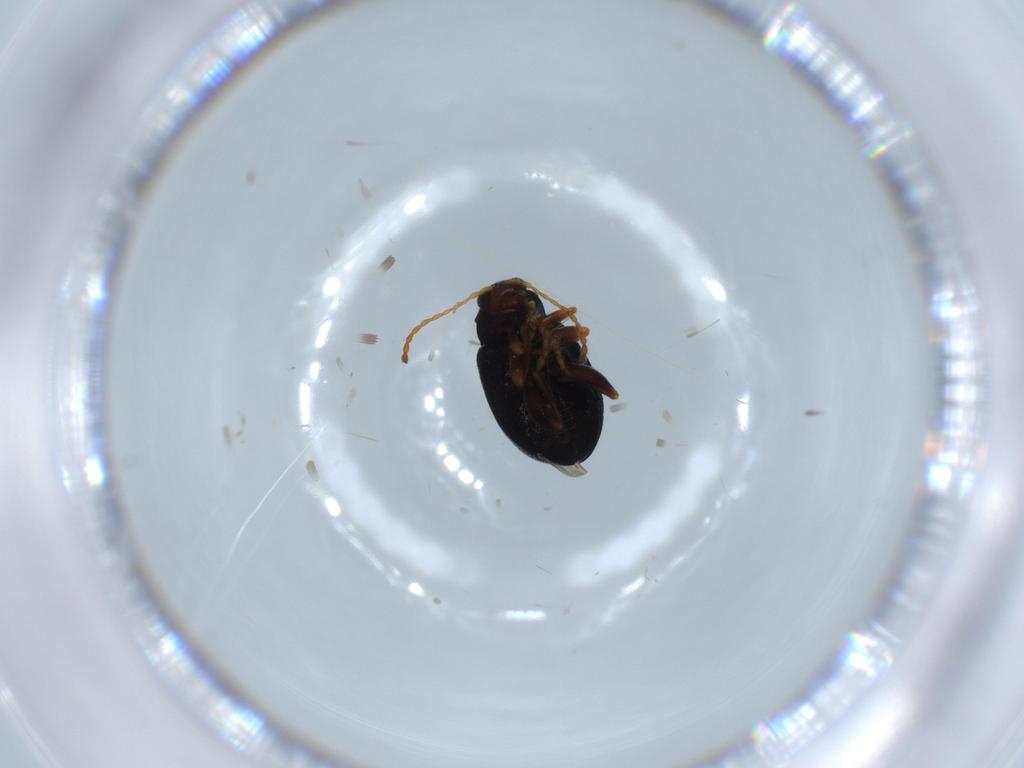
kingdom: Animalia
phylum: Arthropoda
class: Insecta
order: Coleoptera
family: Chrysomelidae
